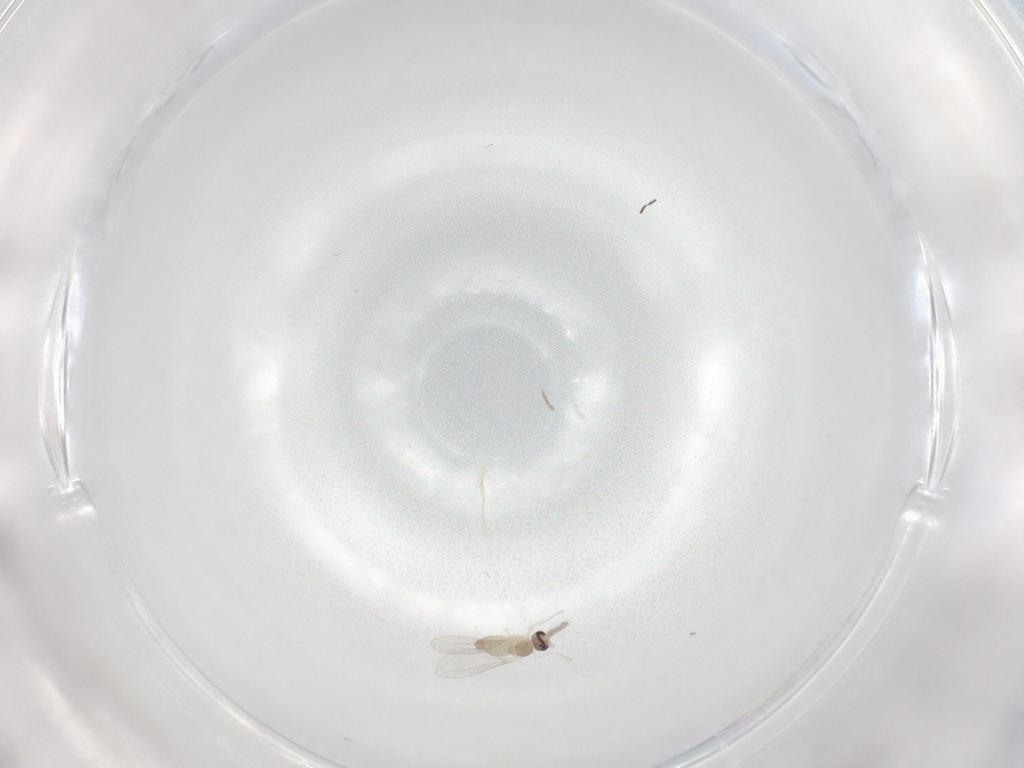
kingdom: Animalia
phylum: Arthropoda
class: Insecta
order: Diptera
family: Cecidomyiidae
